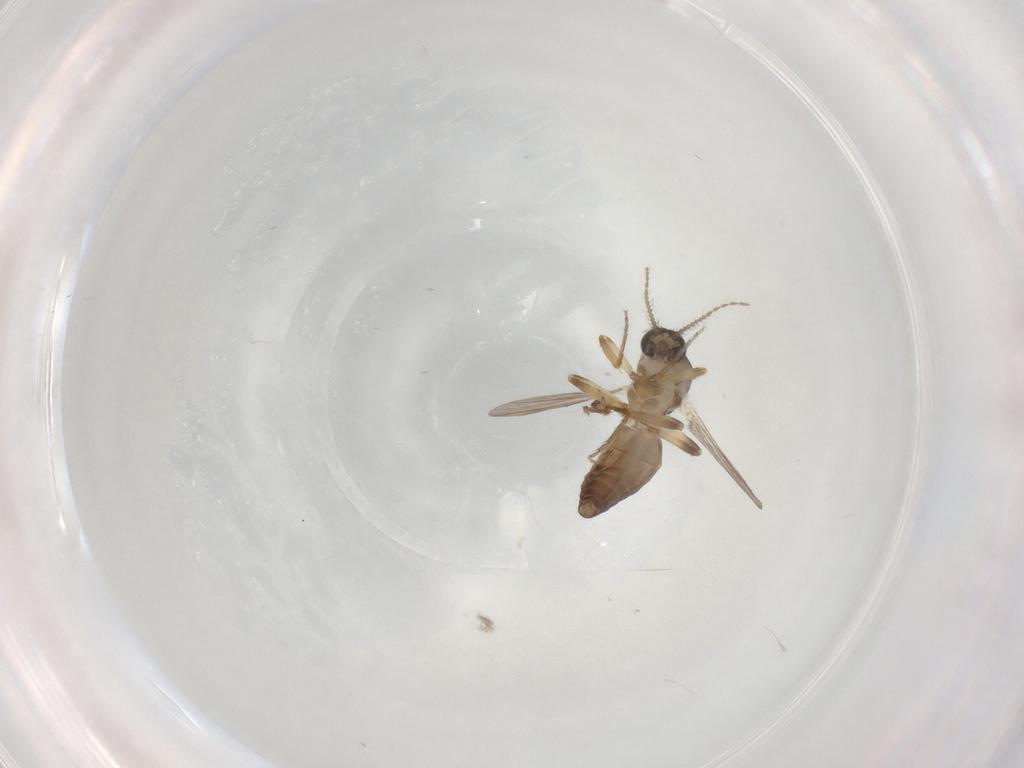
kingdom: Animalia
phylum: Arthropoda
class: Insecta
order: Diptera
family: Ceratopogonidae
